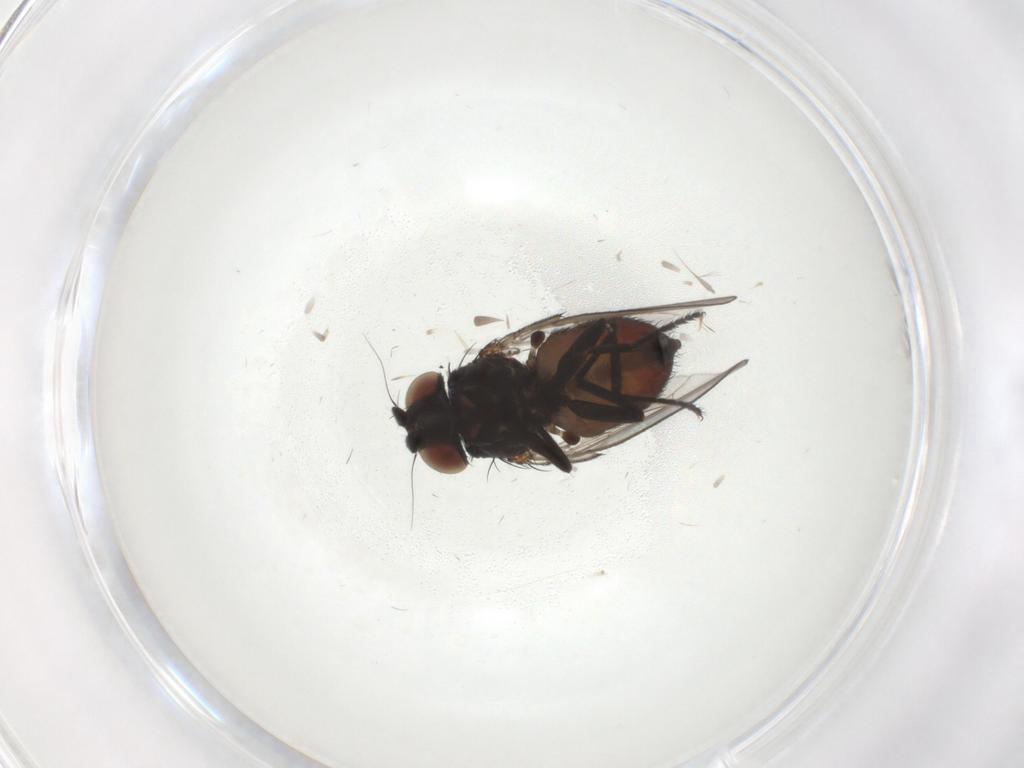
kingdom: Animalia
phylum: Arthropoda
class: Insecta
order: Diptera
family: Milichiidae
